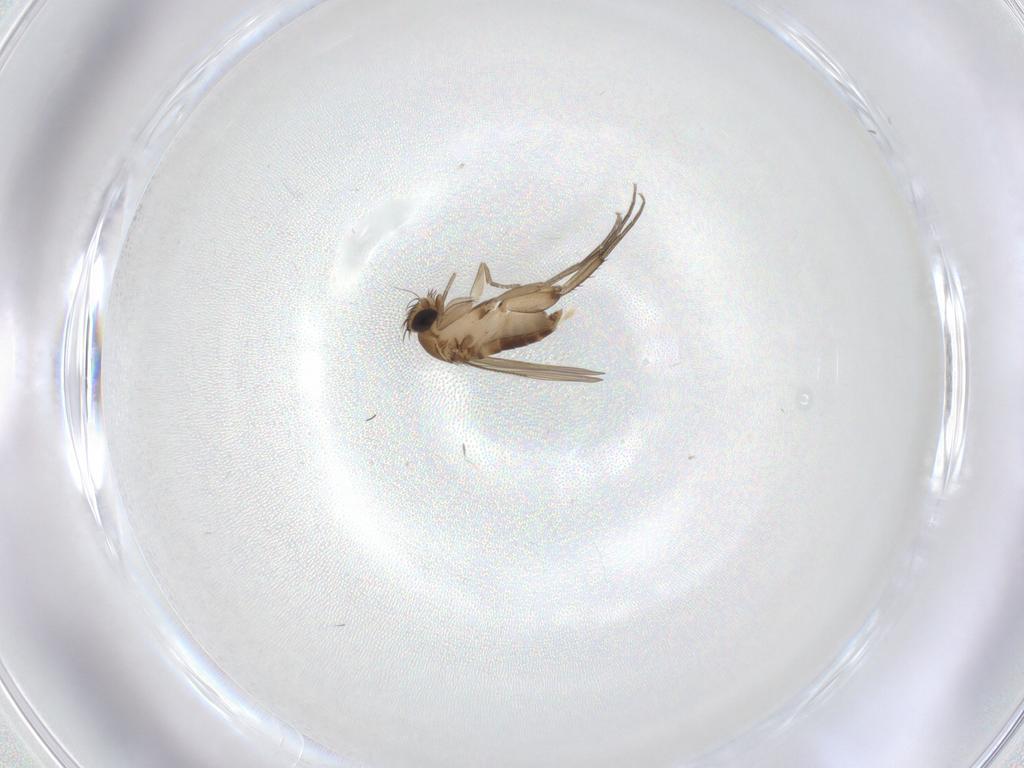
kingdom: Animalia
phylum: Arthropoda
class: Insecta
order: Diptera
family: Phoridae
